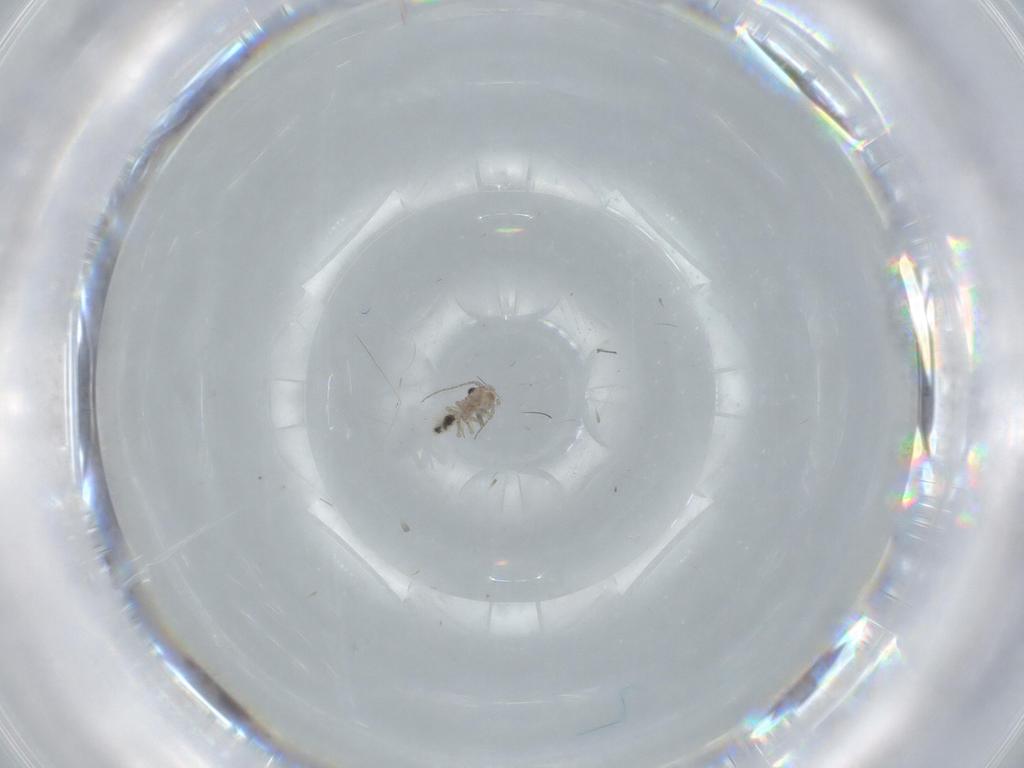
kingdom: Animalia
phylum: Arthropoda
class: Insecta
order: Psocodea
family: Lepidopsocidae
